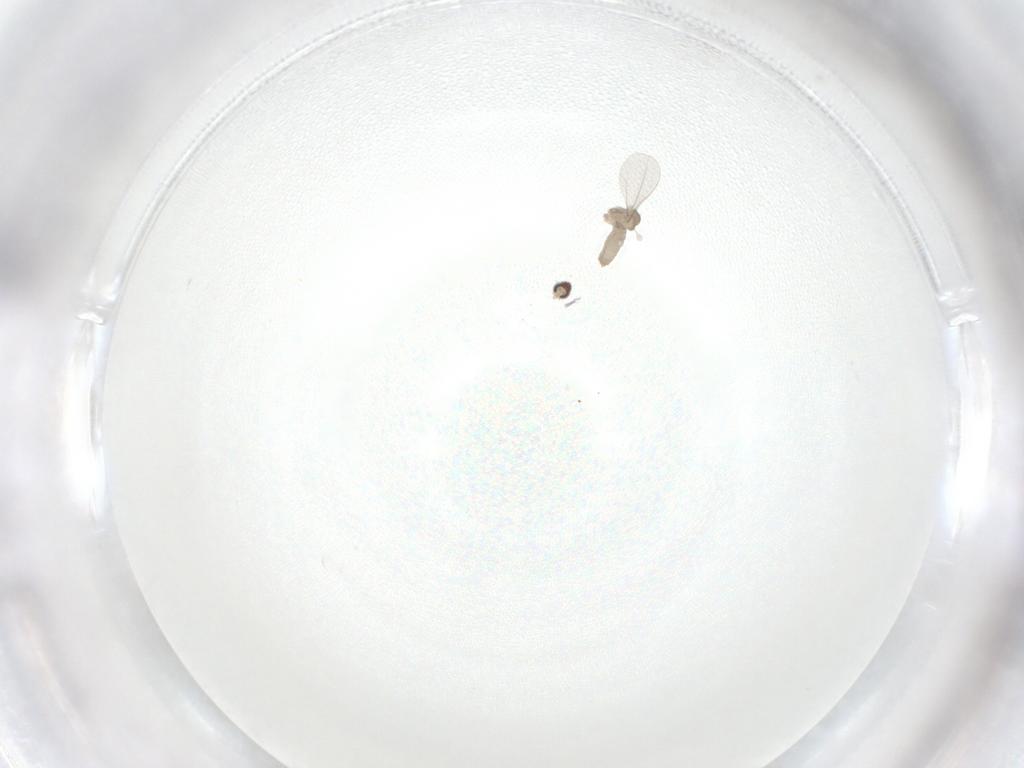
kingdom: Animalia
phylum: Arthropoda
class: Insecta
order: Diptera
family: Cecidomyiidae
